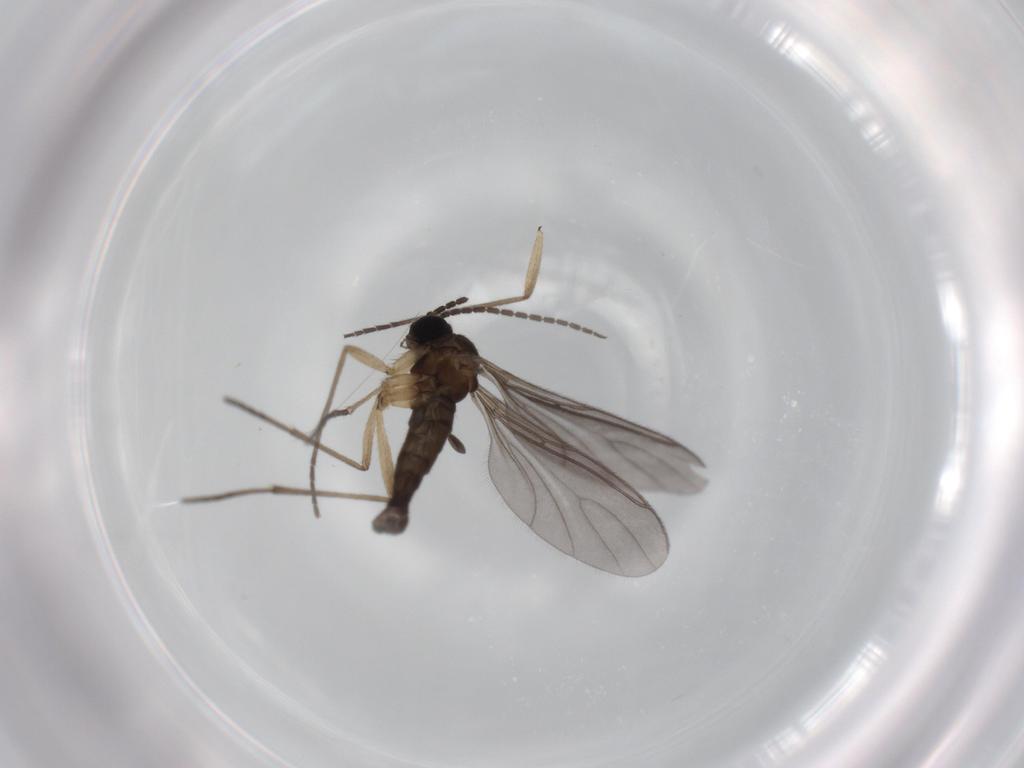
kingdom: Animalia
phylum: Arthropoda
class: Insecta
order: Diptera
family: Sciaridae
